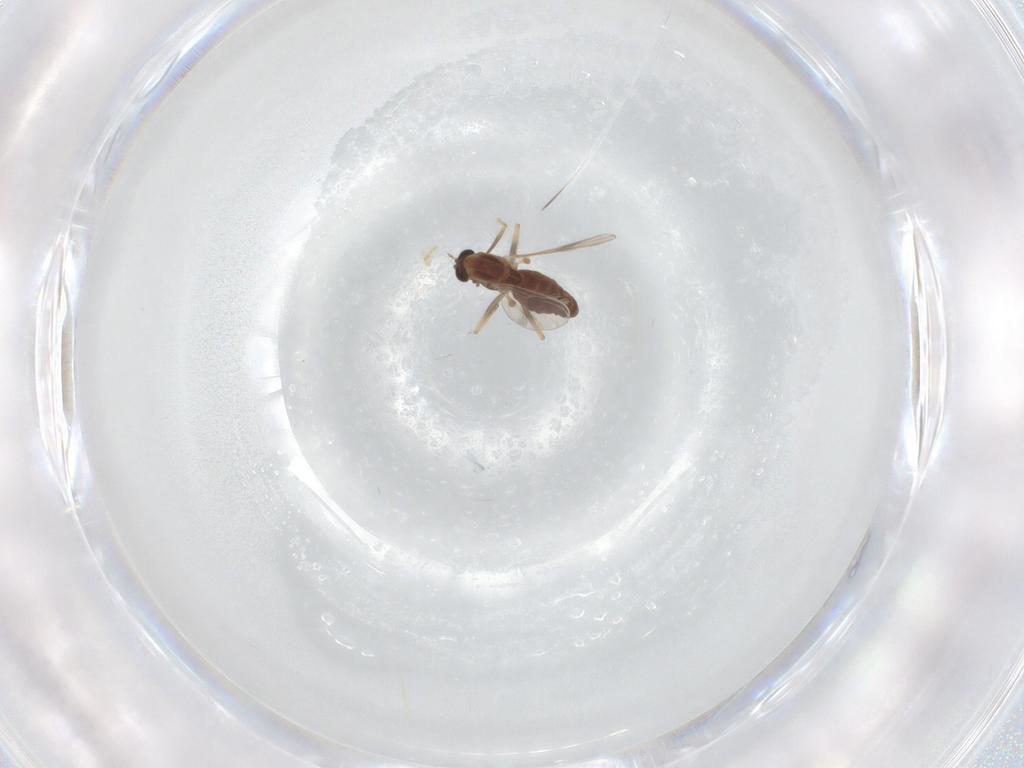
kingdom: Animalia
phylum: Arthropoda
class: Insecta
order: Diptera
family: Chironomidae
